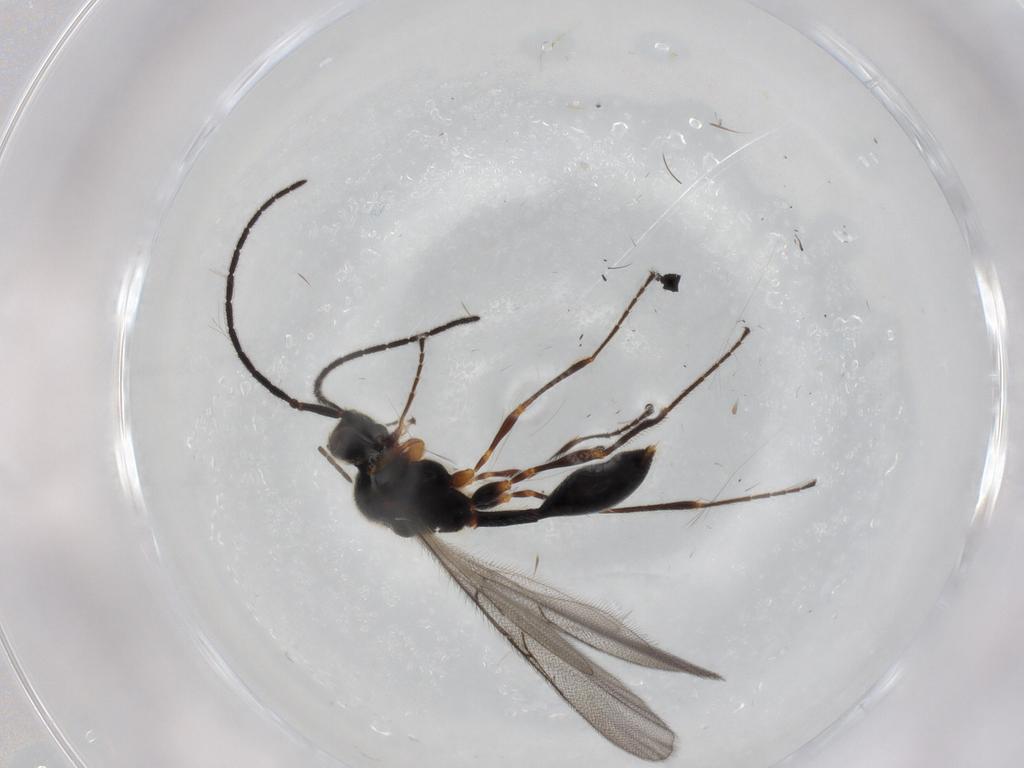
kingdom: Animalia
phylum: Arthropoda
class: Insecta
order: Hymenoptera
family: Diapriidae
